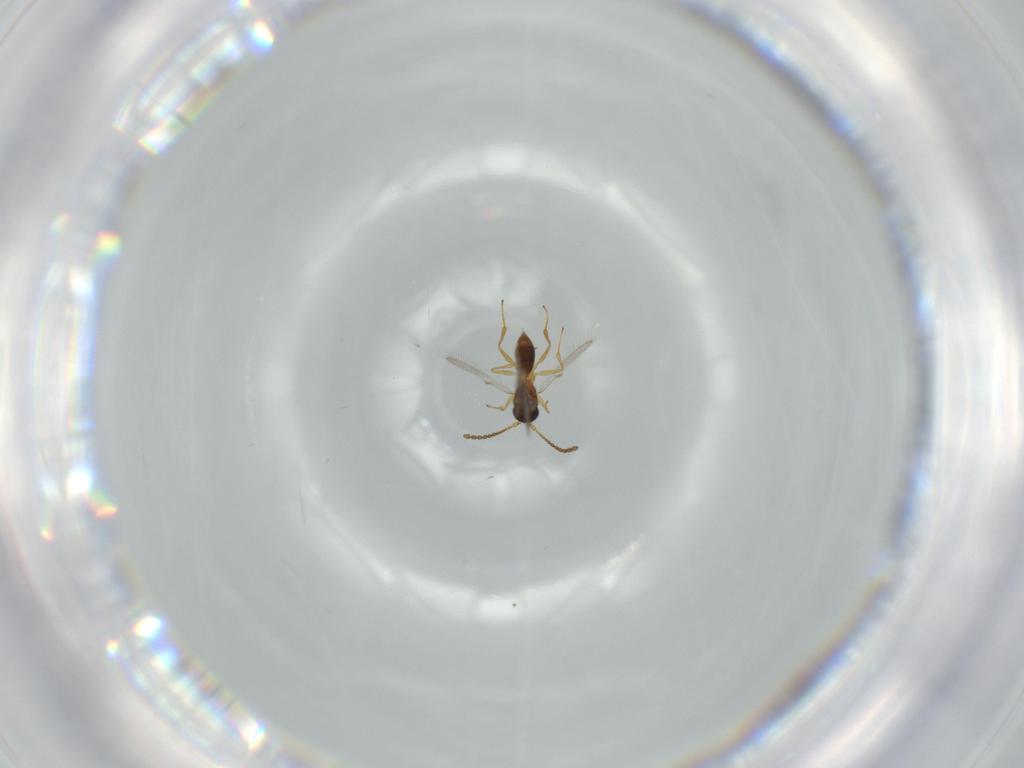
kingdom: Animalia
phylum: Arthropoda
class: Insecta
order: Hymenoptera
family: Figitidae
